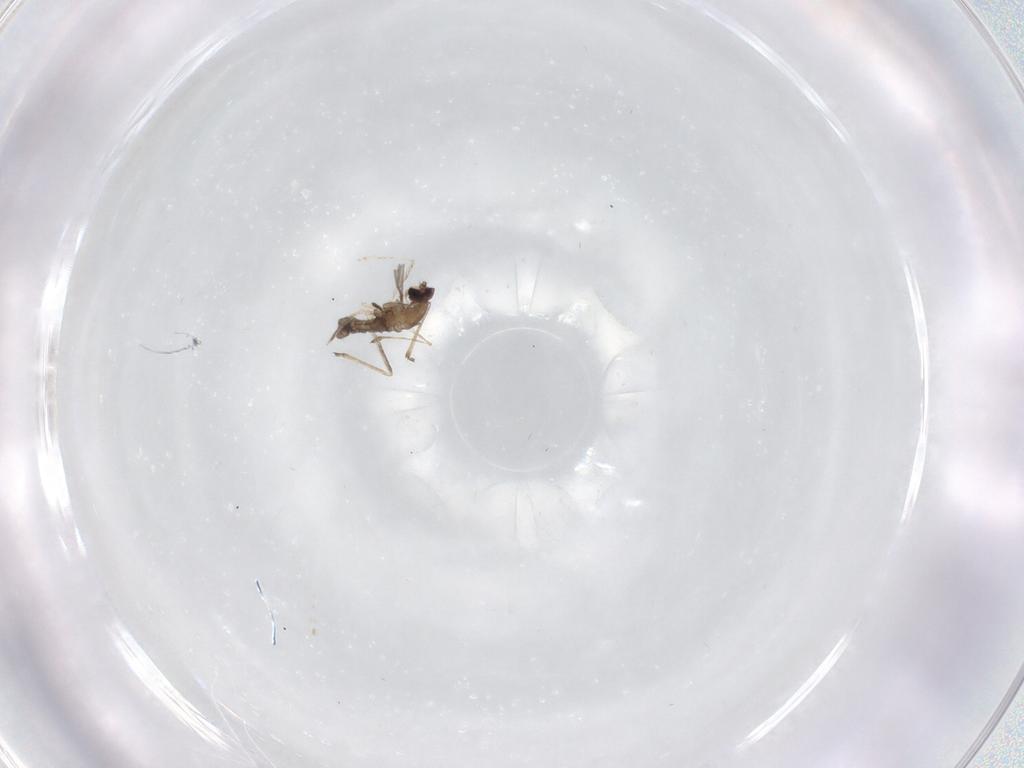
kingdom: Animalia
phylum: Arthropoda
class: Insecta
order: Diptera
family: Cecidomyiidae
